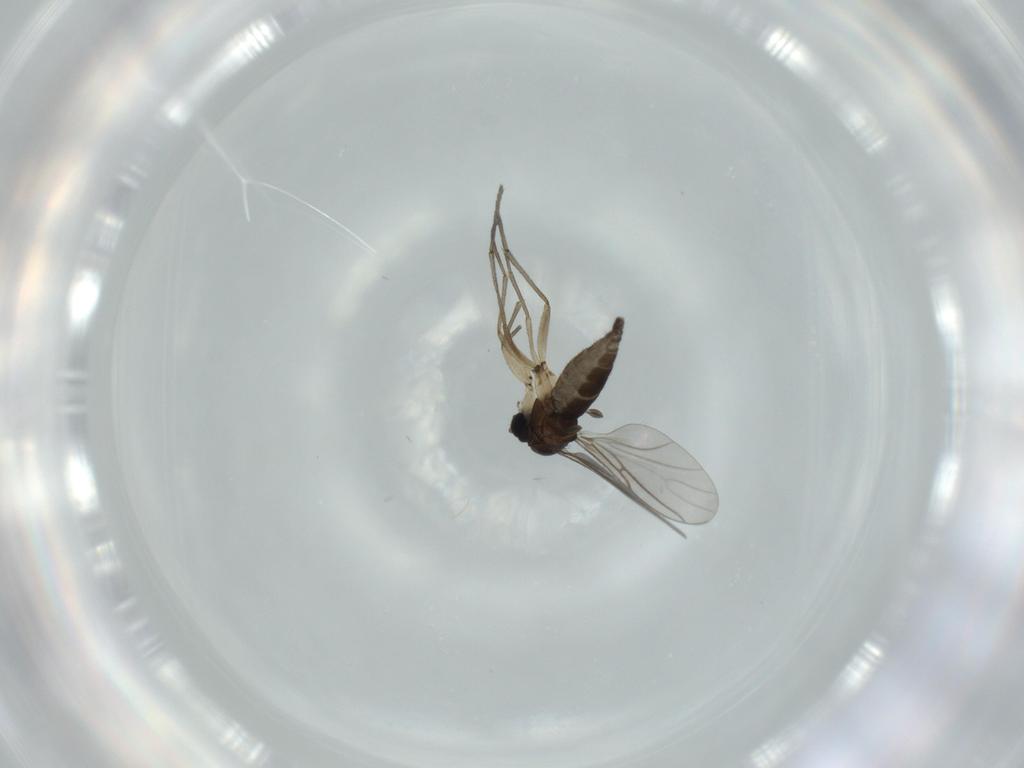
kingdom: Animalia
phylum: Arthropoda
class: Insecta
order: Diptera
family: Sciaridae
